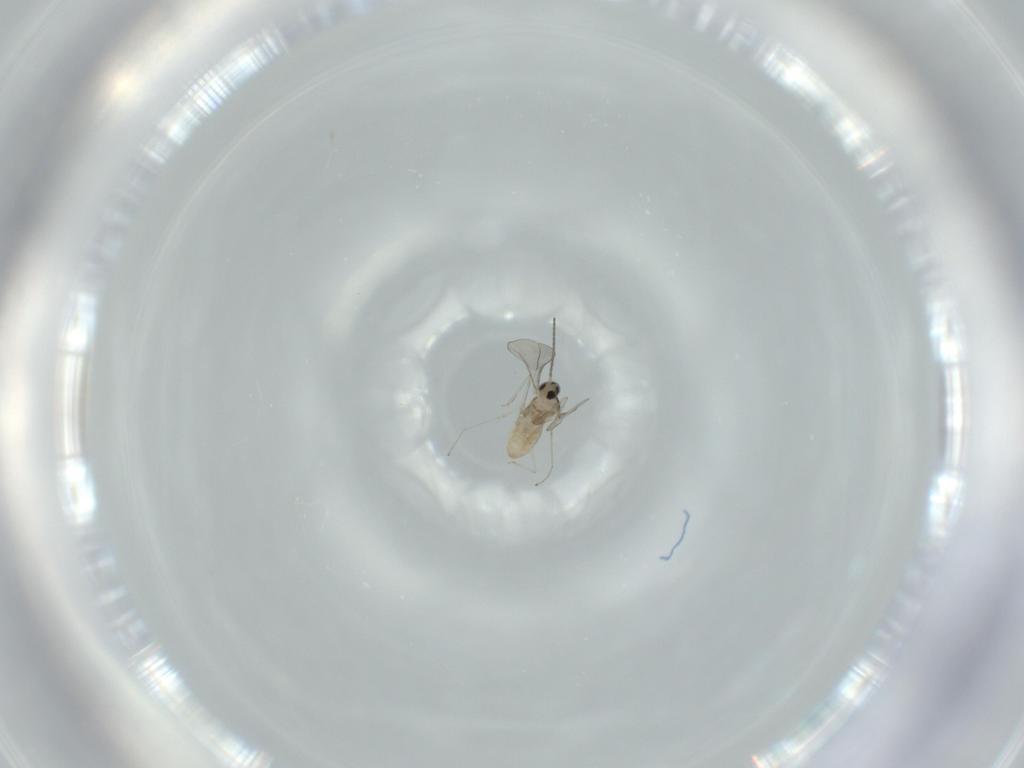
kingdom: Animalia
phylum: Arthropoda
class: Insecta
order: Diptera
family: Cecidomyiidae
